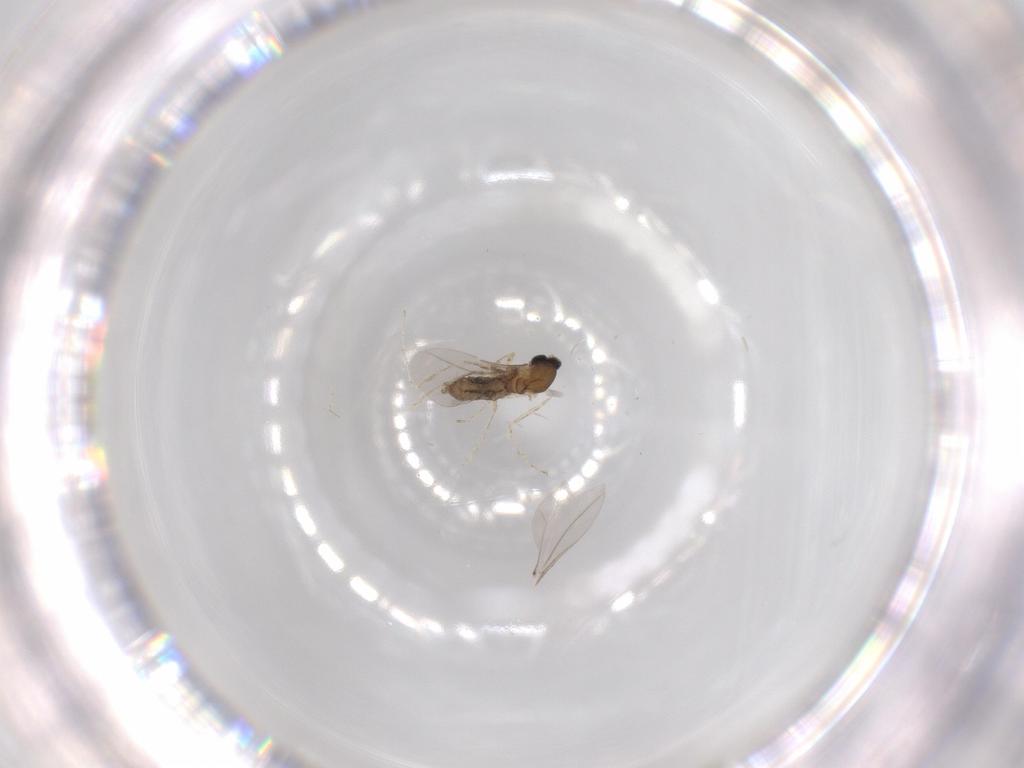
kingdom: Animalia
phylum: Arthropoda
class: Insecta
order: Diptera
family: Cecidomyiidae
